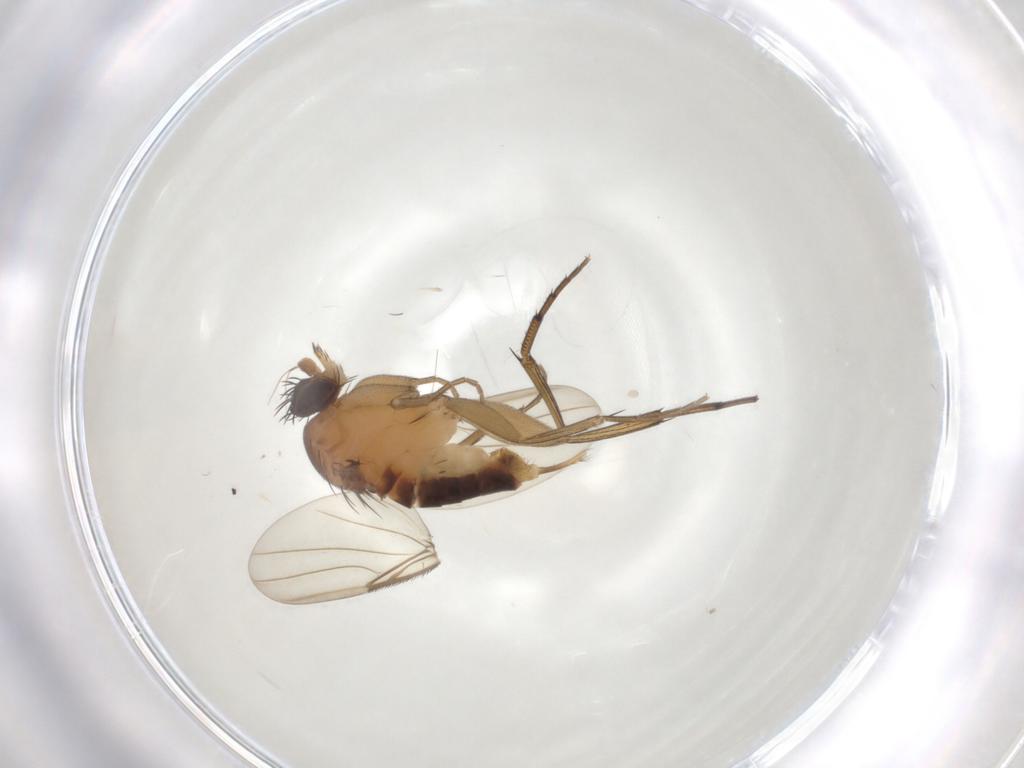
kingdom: Animalia
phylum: Arthropoda
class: Insecta
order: Diptera
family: Phoridae
